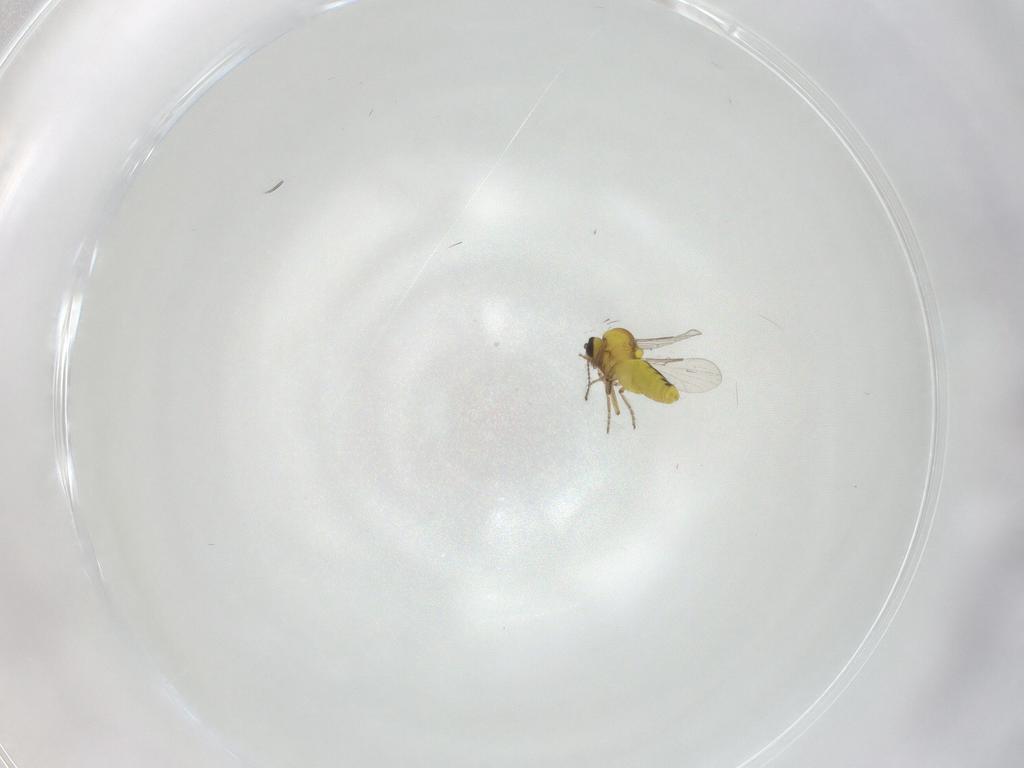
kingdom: Animalia
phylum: Arthropoda
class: Insecta
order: Diptera
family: Ceratopogonidae
